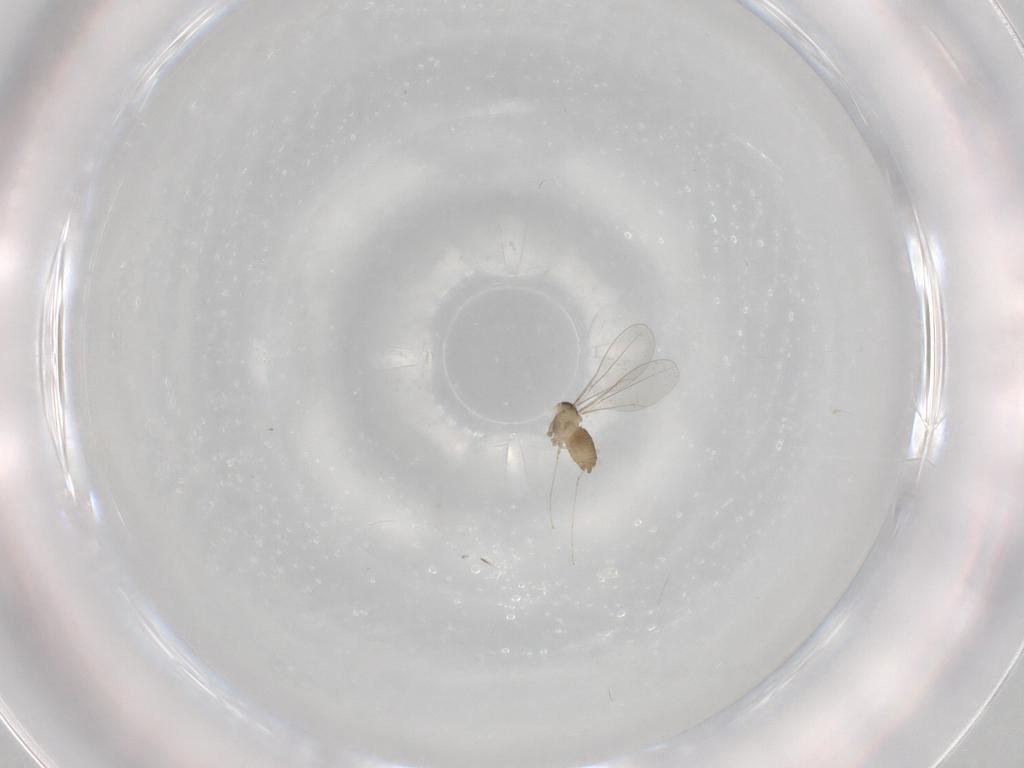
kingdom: Animalia
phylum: Arthropoda
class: Insecta
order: Diptera
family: Cecidomyiidae
